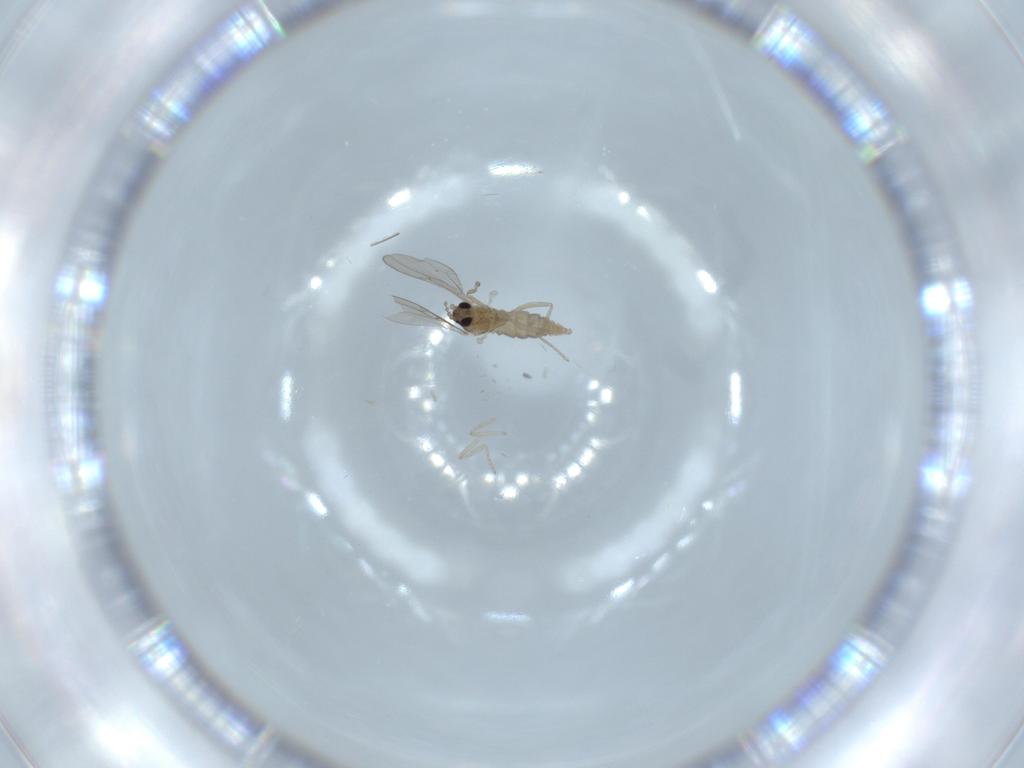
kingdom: Animalia
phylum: Arthropoda
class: Insecta
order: Diptera
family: Cecidomyiidae
